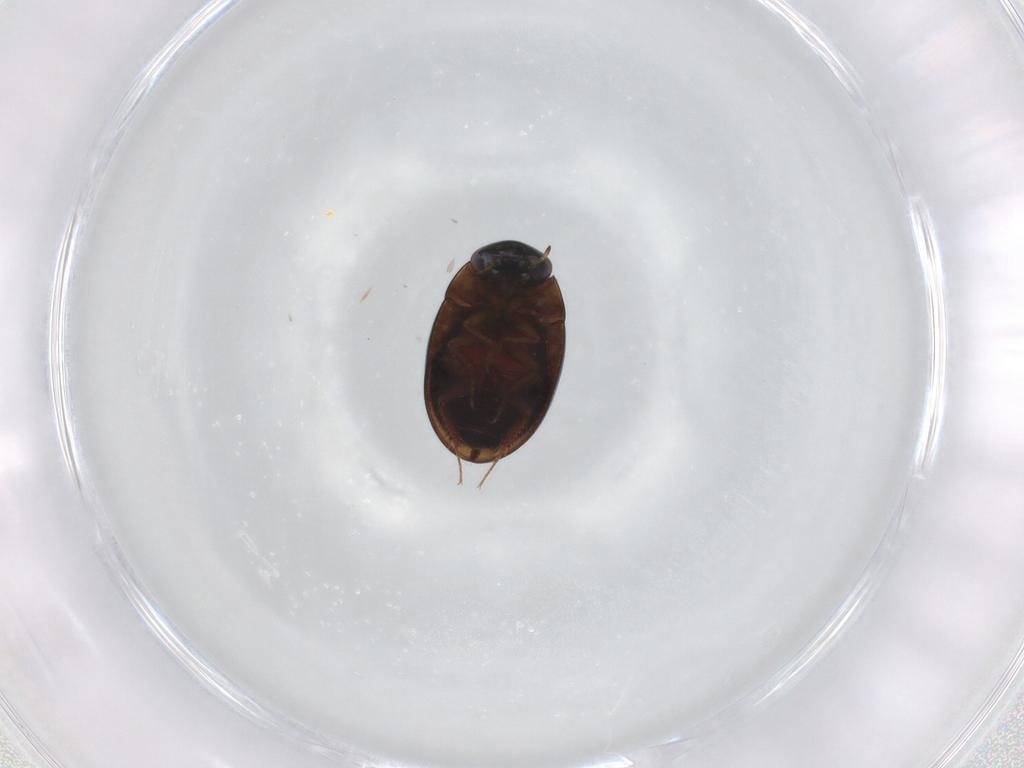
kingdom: Animalia
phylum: Arthropoda
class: Insecta
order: Coleoptera
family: Hydrophilidae
